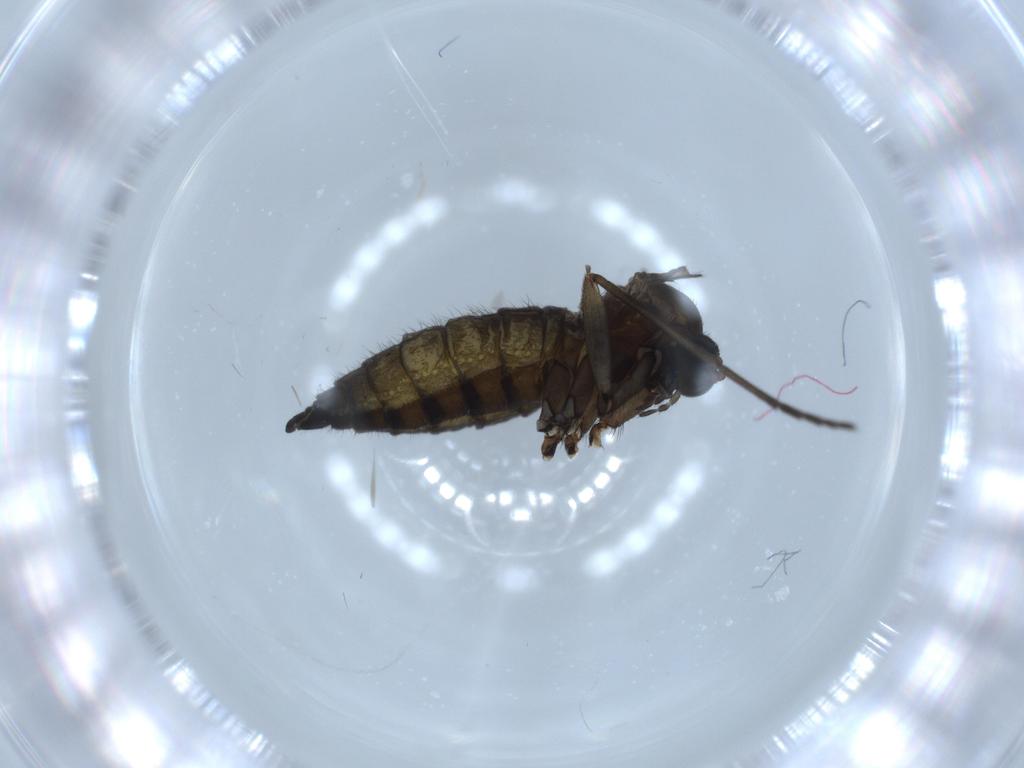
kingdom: Animalia
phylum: Arthropoda
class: Insecta
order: Diptera
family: Sciaridae
